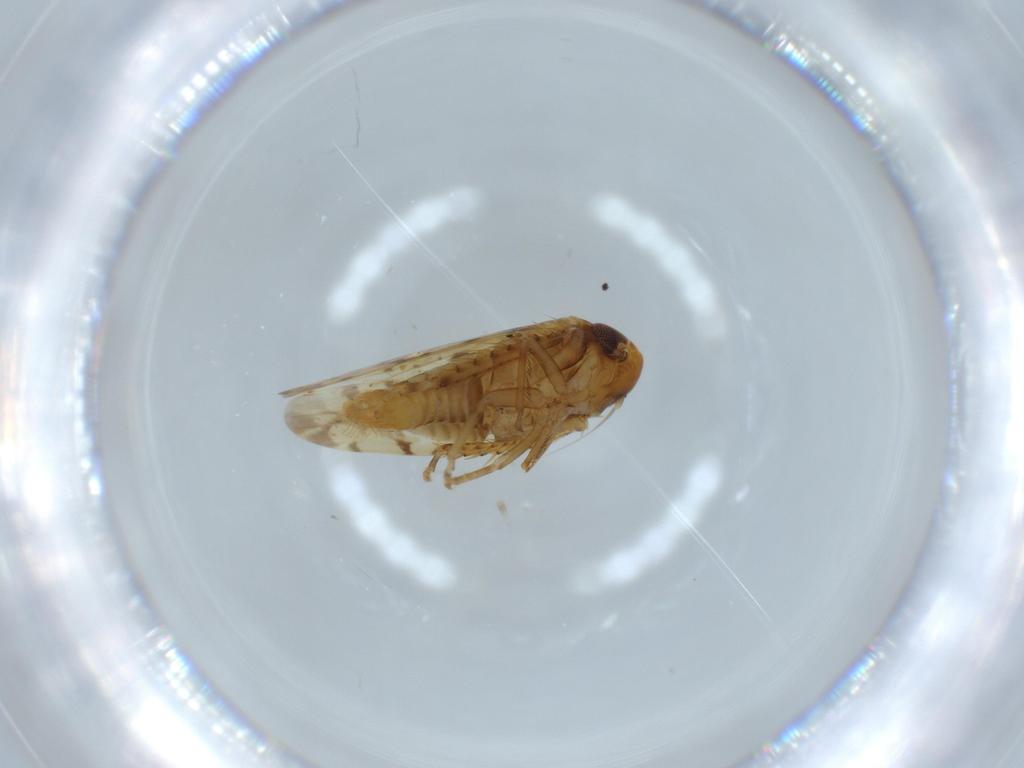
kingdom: Animalia
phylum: Arthropoda
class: Insecta
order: Hemiptera
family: Cicadellidae
